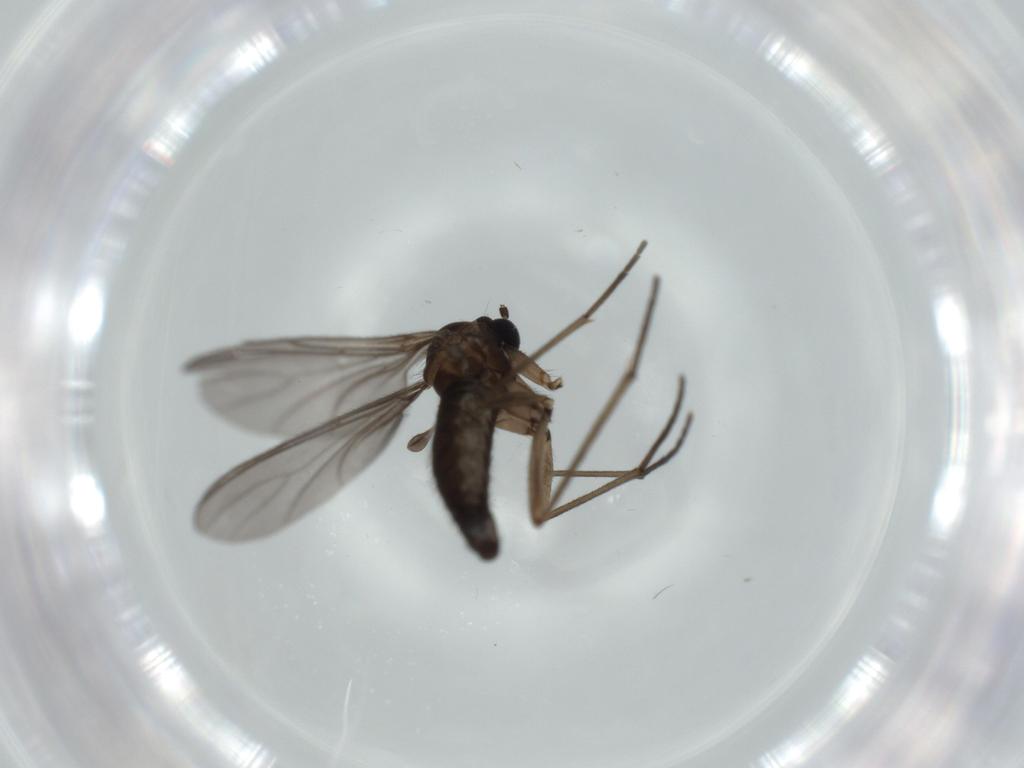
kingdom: Animalia
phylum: Arthropoda
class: Insecta
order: Diptera
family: Sciaridae
